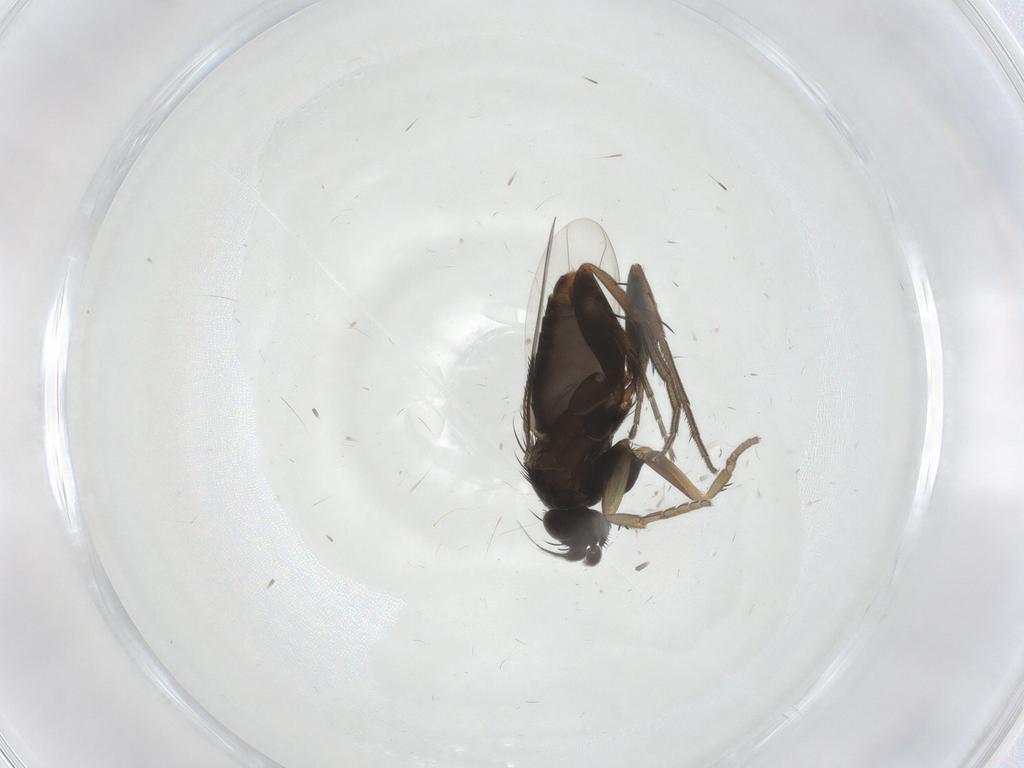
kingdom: Animalia
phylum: Arthropoda
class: Insecta
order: Diptera
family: Phoridae
